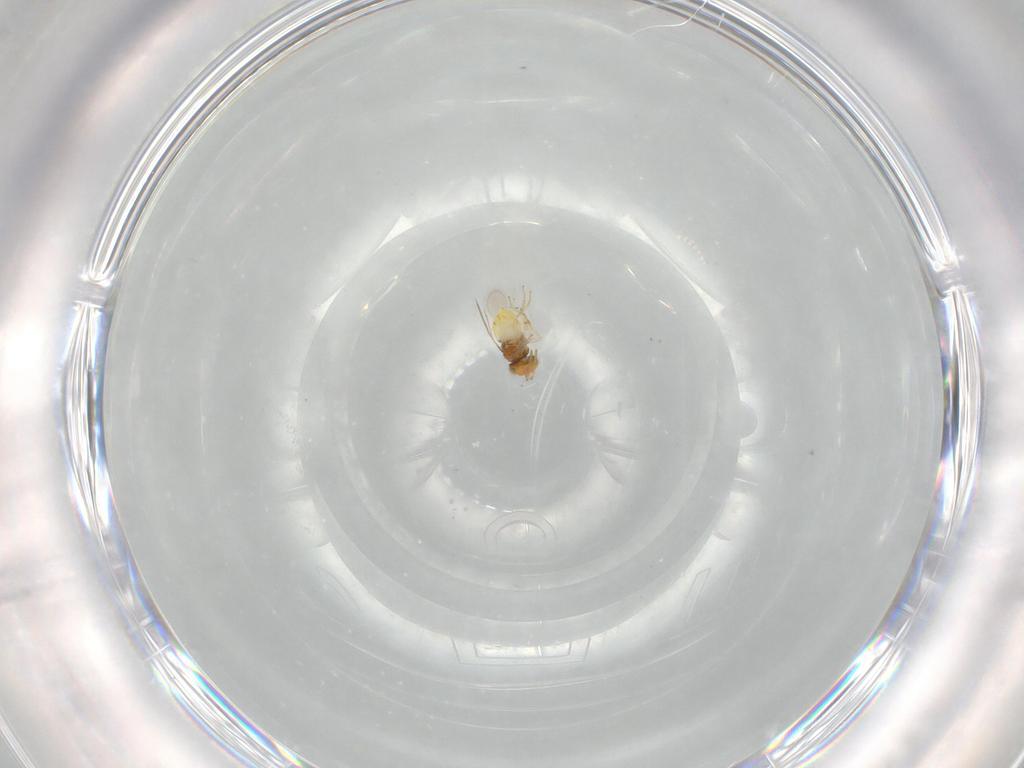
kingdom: Animalia
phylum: Arthropoda
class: Insecta
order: Hymenoptera
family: Aphelinidae
